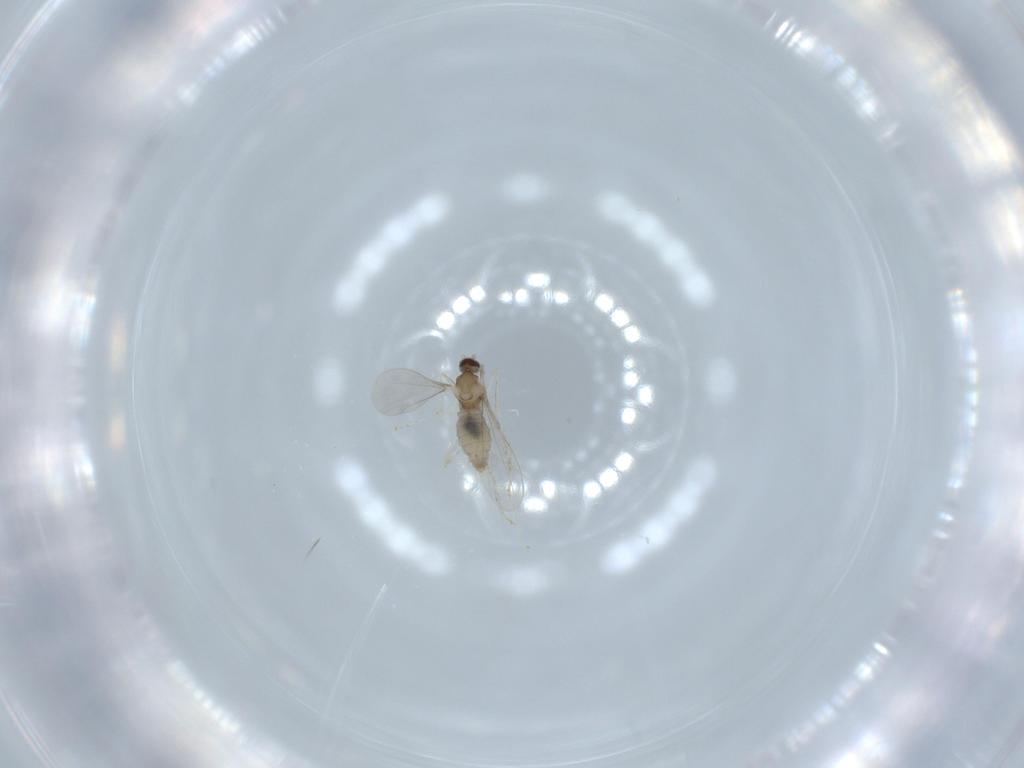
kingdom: Animalia
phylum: Arthropoda
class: Insecta
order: Diptera
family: Cecidomyiidae
